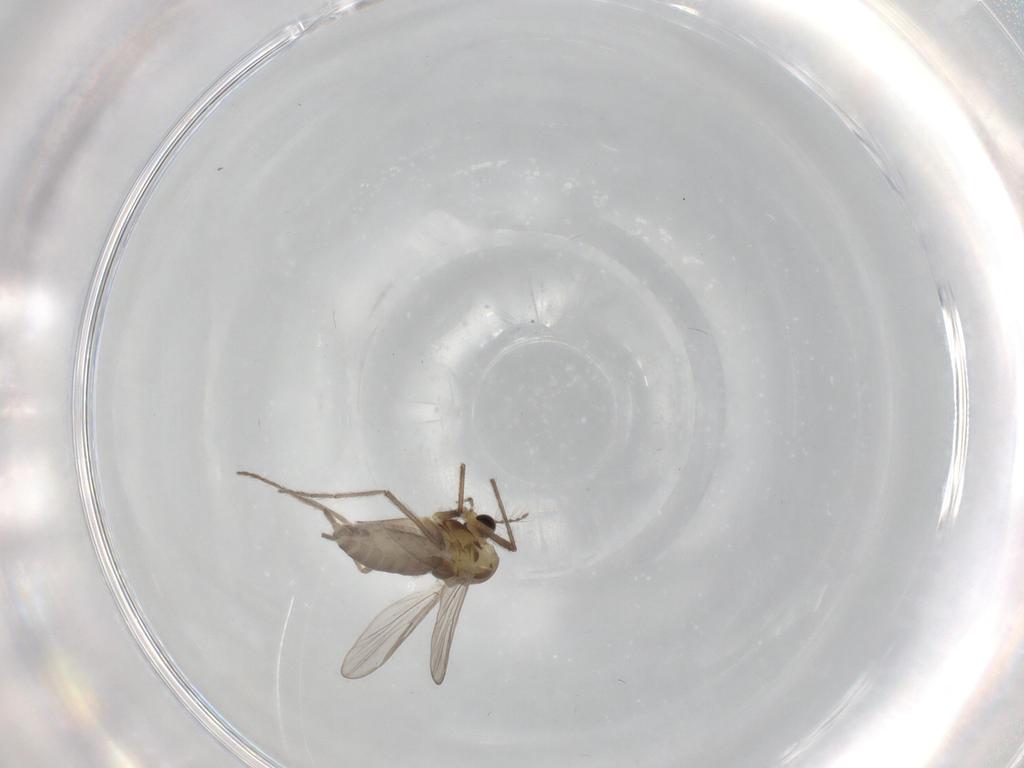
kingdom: Animalia
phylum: Arthropoda
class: Insecta
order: Diptera
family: Chironomidae
